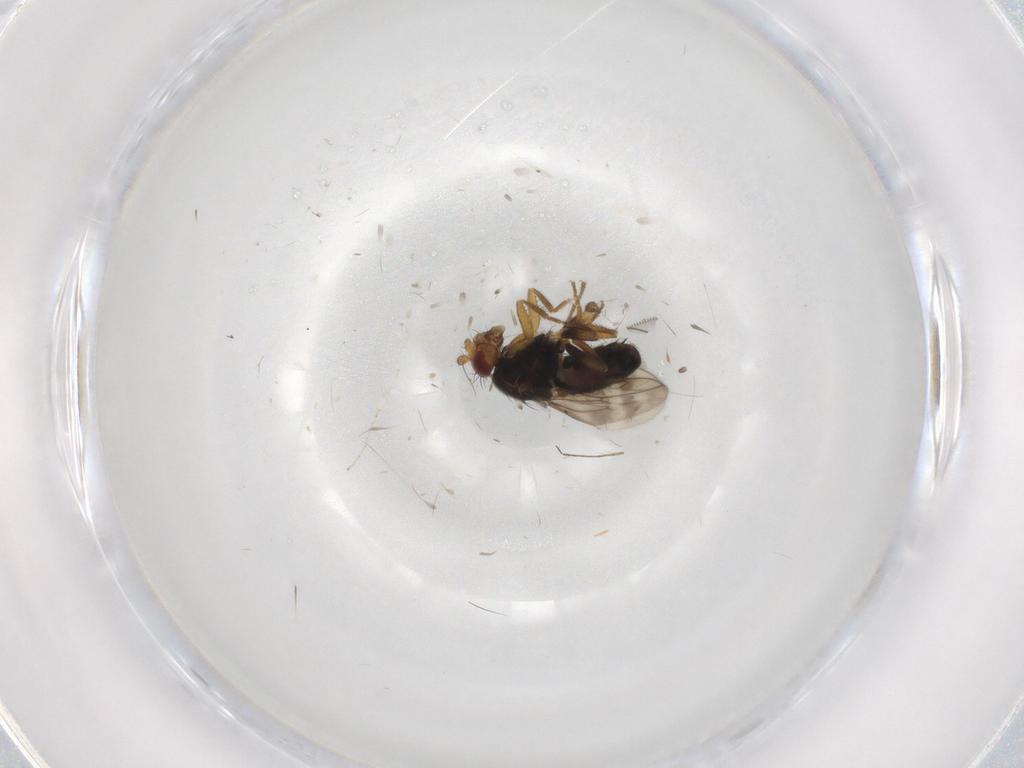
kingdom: Animalia
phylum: Arthropoda
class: Insecta
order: Diptera
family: Sphaeroceridae
